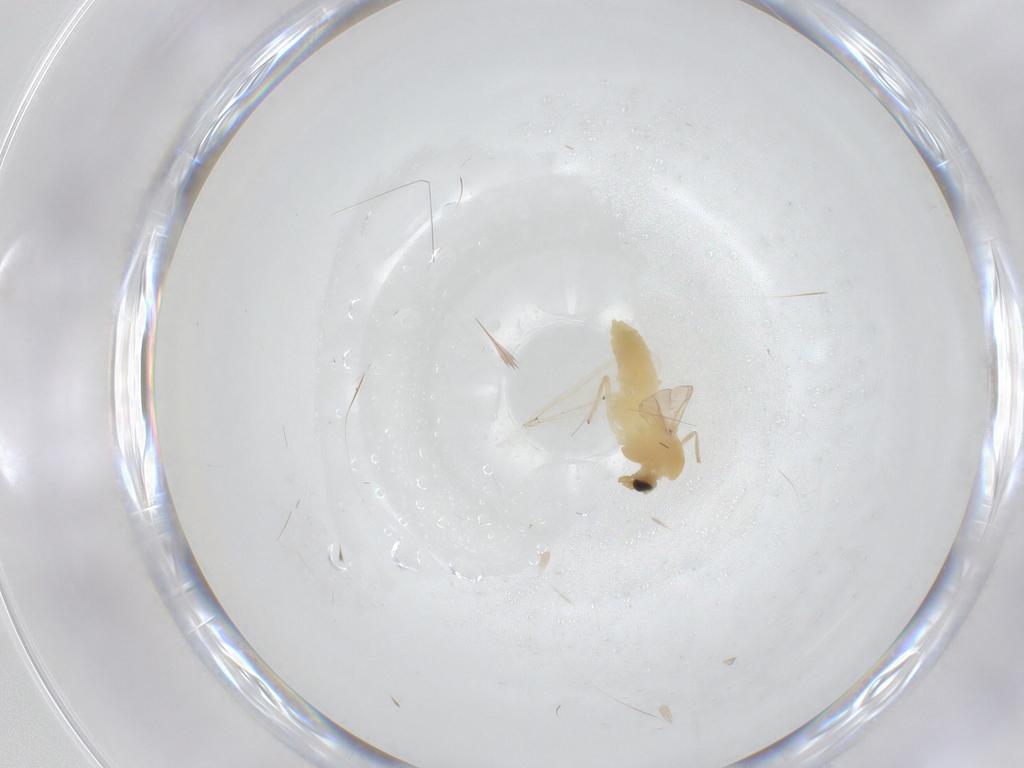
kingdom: Animalia
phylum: Arthropoda
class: Insecta
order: Diptera
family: Chironomidae
